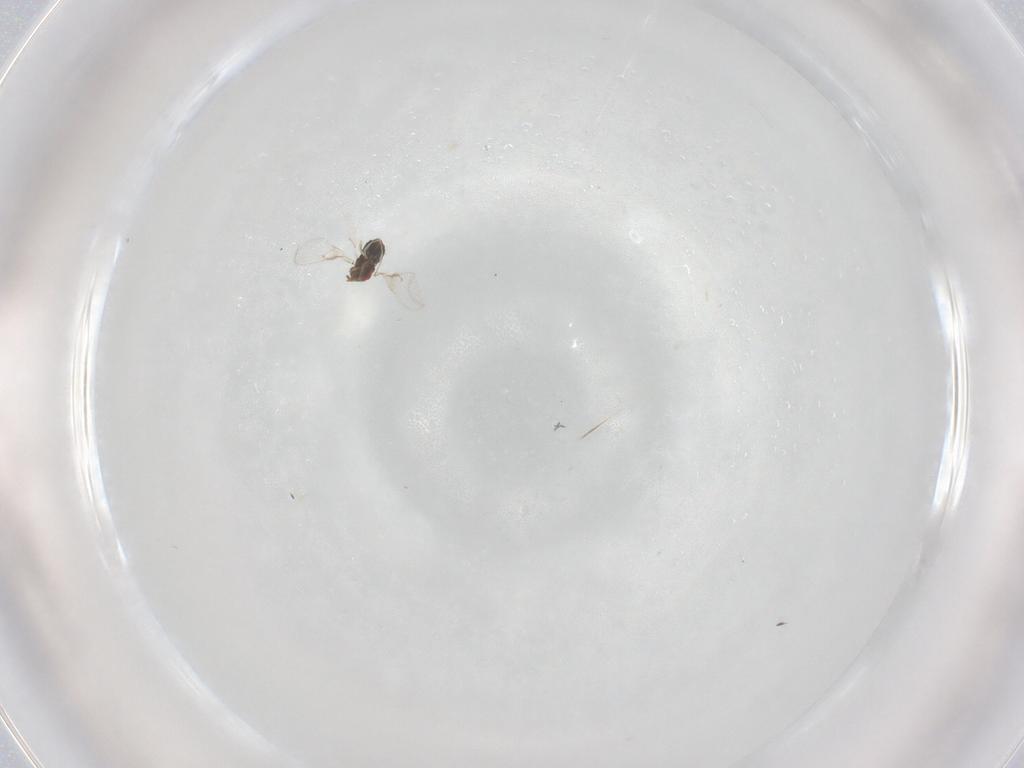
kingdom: Animalia
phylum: Arthropoda
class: Insecta
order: Hymenoptera
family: Trichogrammatidae
